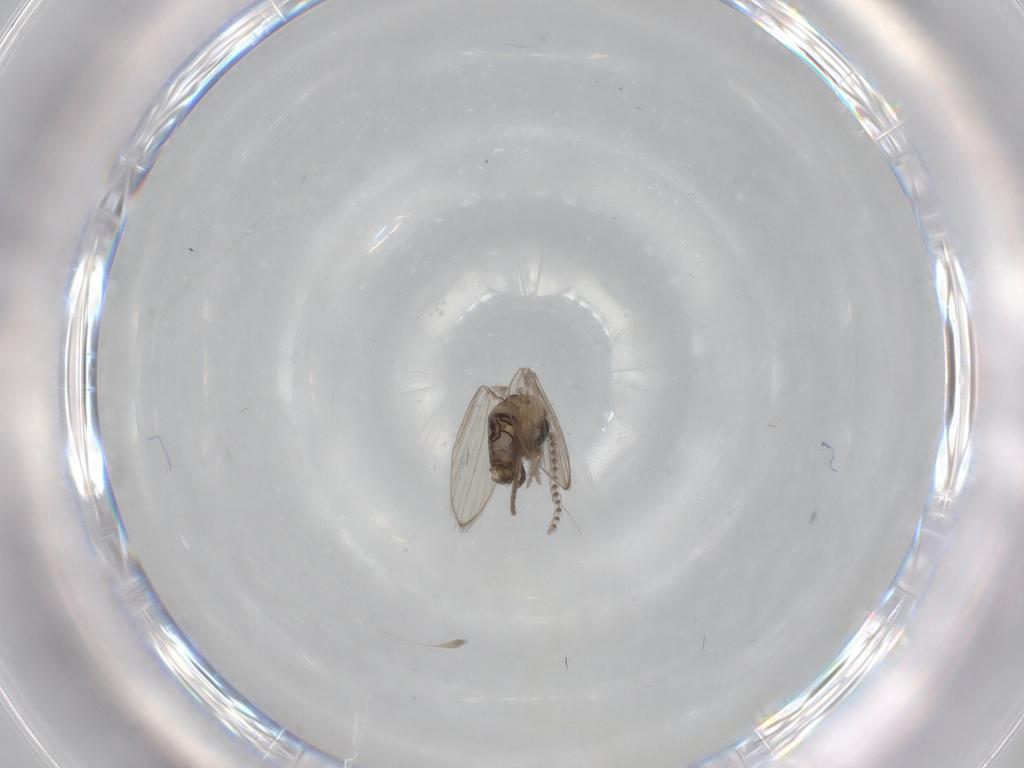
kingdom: Animalia
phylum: Arthropoda
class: Insecta
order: Diptera
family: Psychodidae
